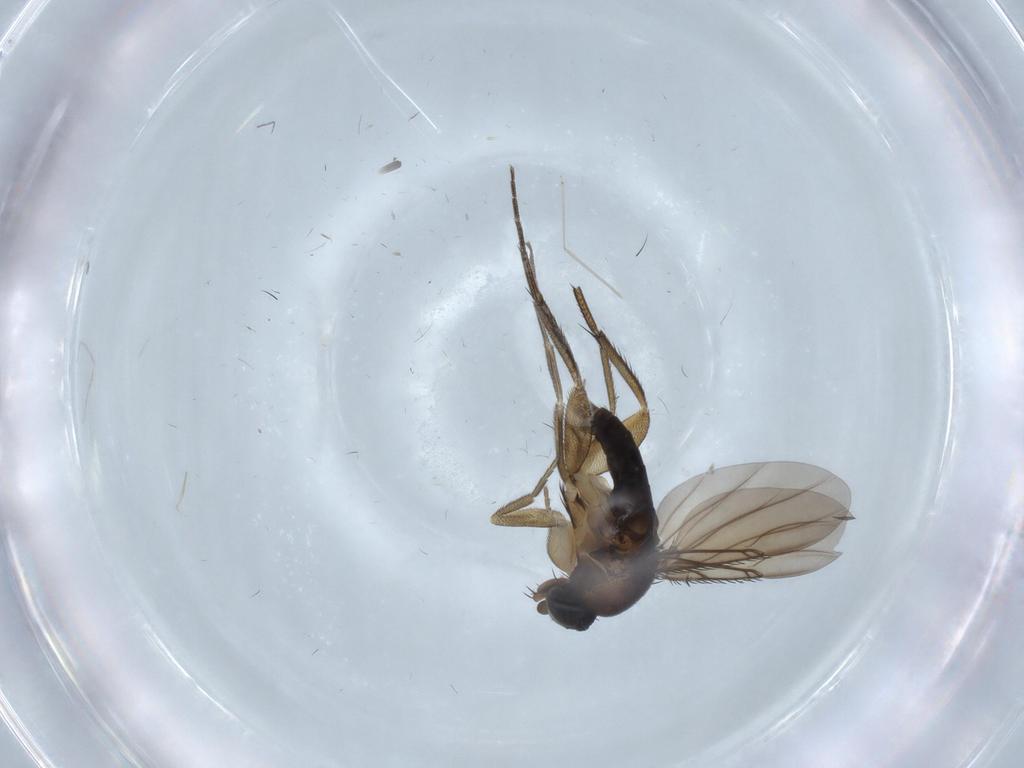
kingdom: Animalia
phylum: Arthropoda
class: Insecta
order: Diptera
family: Phoridae
